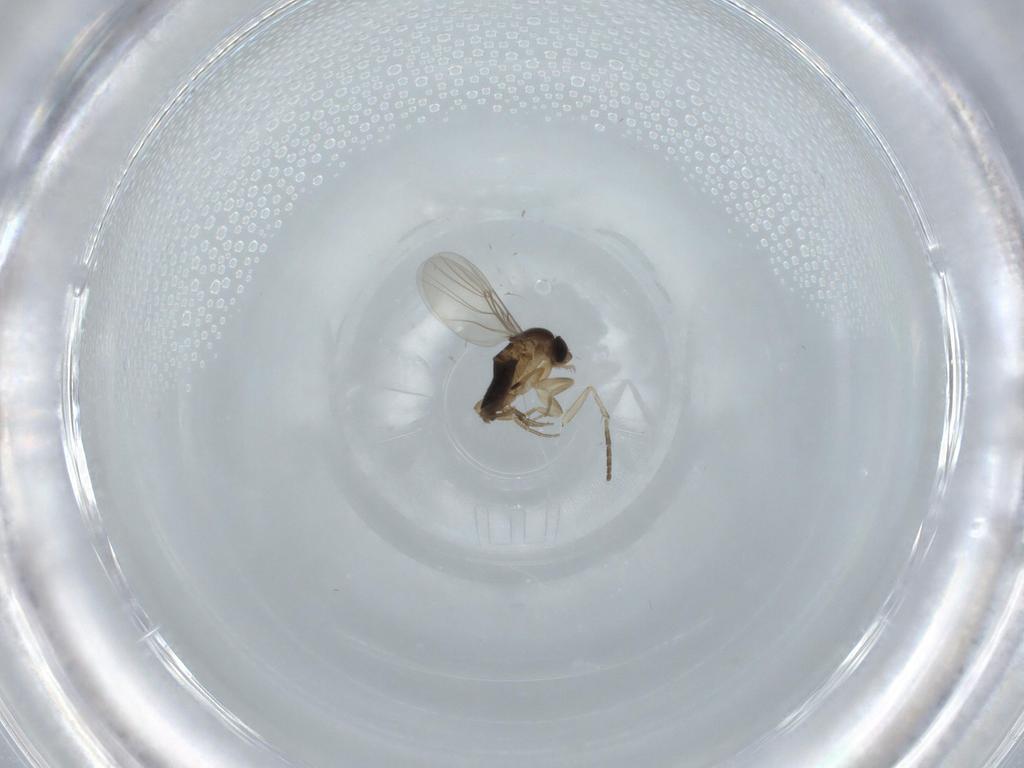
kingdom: Animalia
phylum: Arthropoda
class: Insecta
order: Diptera
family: Phoridae
